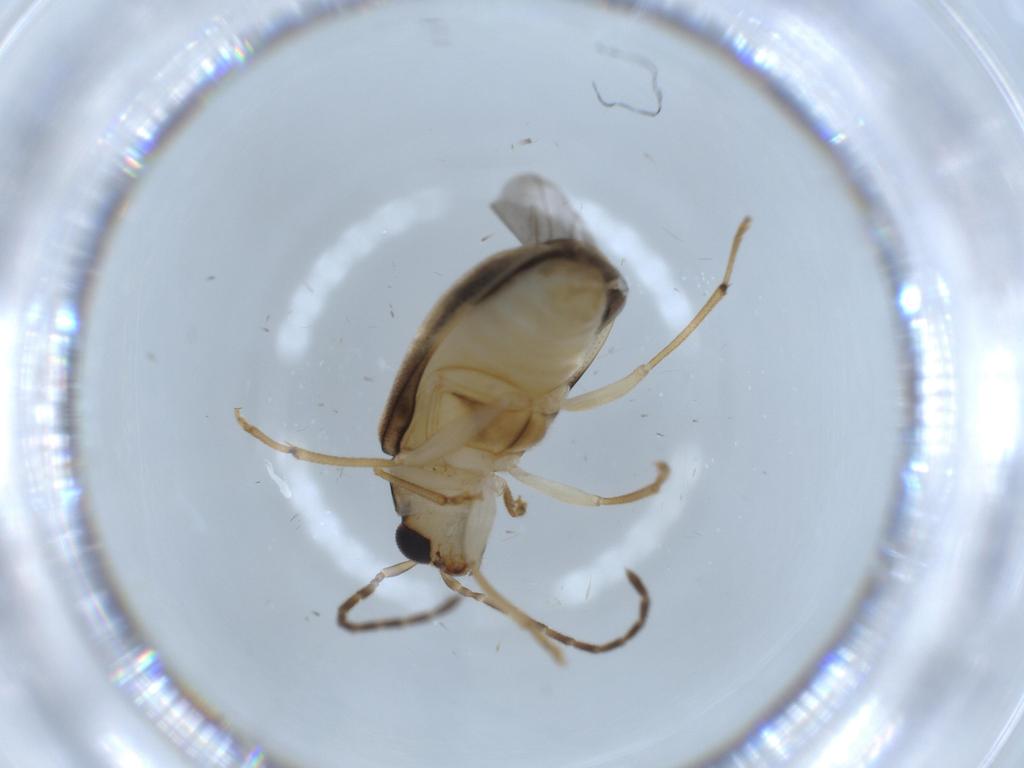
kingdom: Animalia
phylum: Arthropoda
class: Insecta
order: Coleoptera
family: Chrysomelidae
